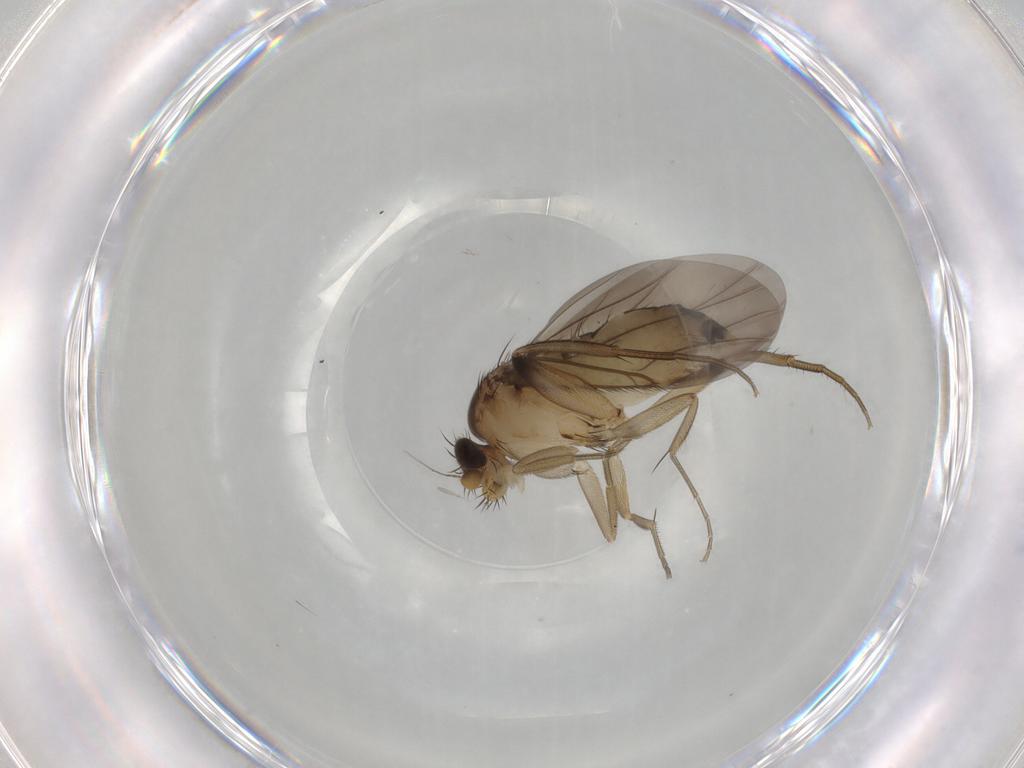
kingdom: Animalia
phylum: Arthropoda
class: Insecta
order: Diptera
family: Phoridae
